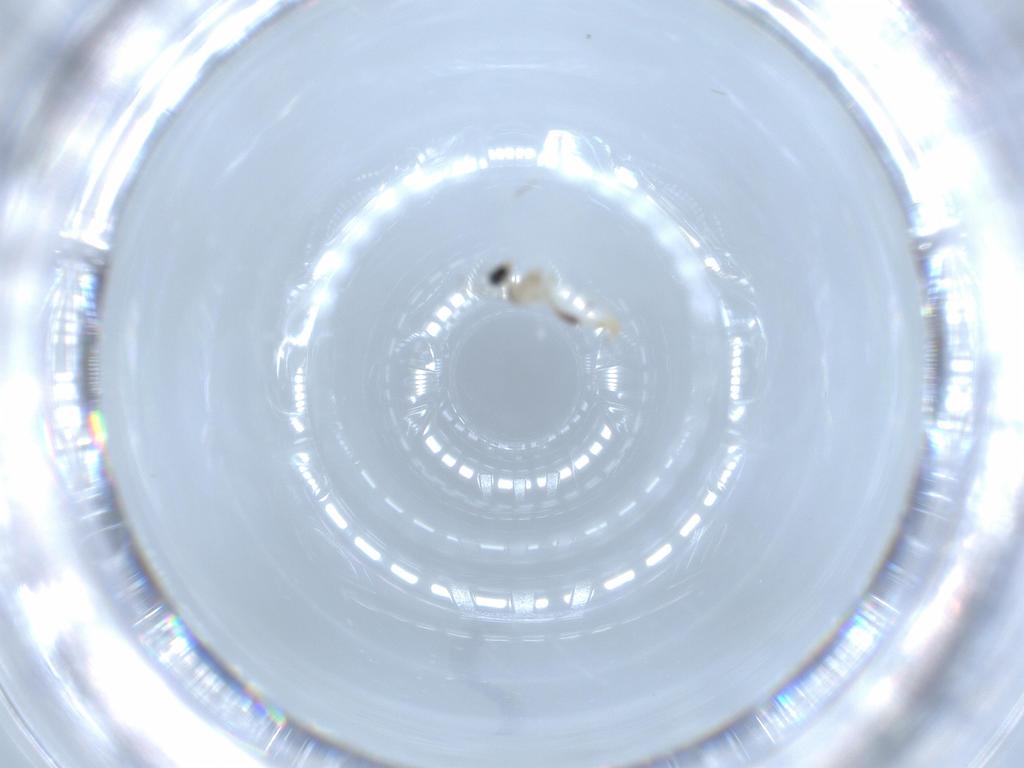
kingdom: Animalia
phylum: Arthropoda
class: Insecta
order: Diptera
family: Cecidomyiidae
